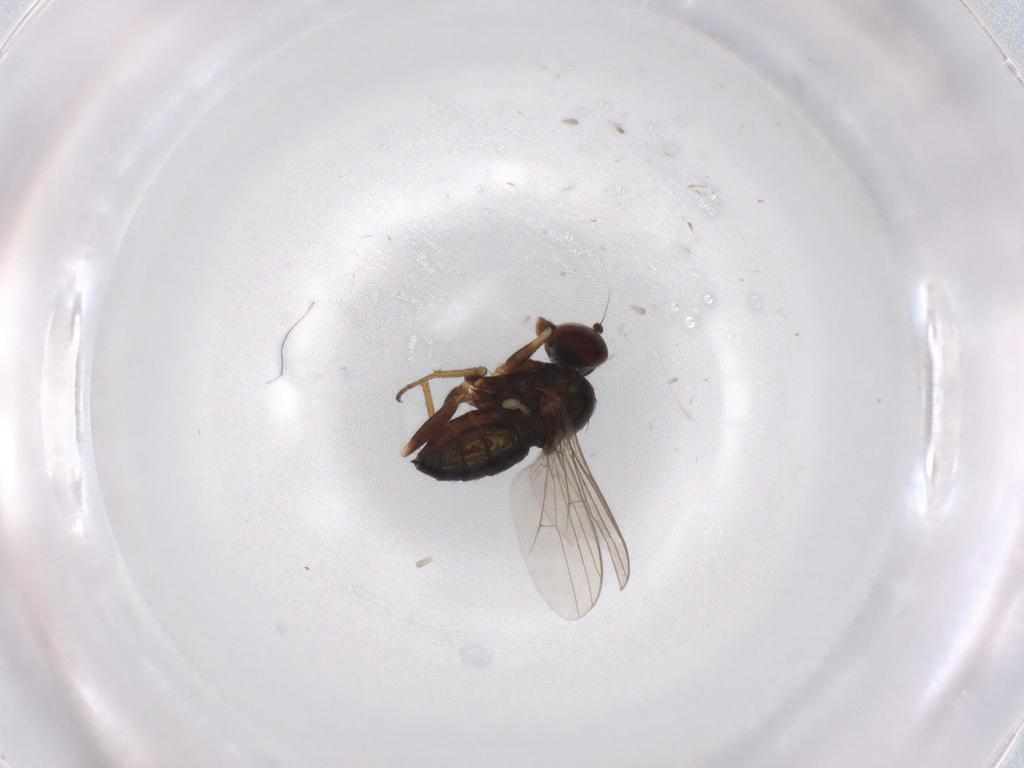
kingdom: Animalia
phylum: Arthropoda
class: Insecta
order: Diptera
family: Dolichopodidae
